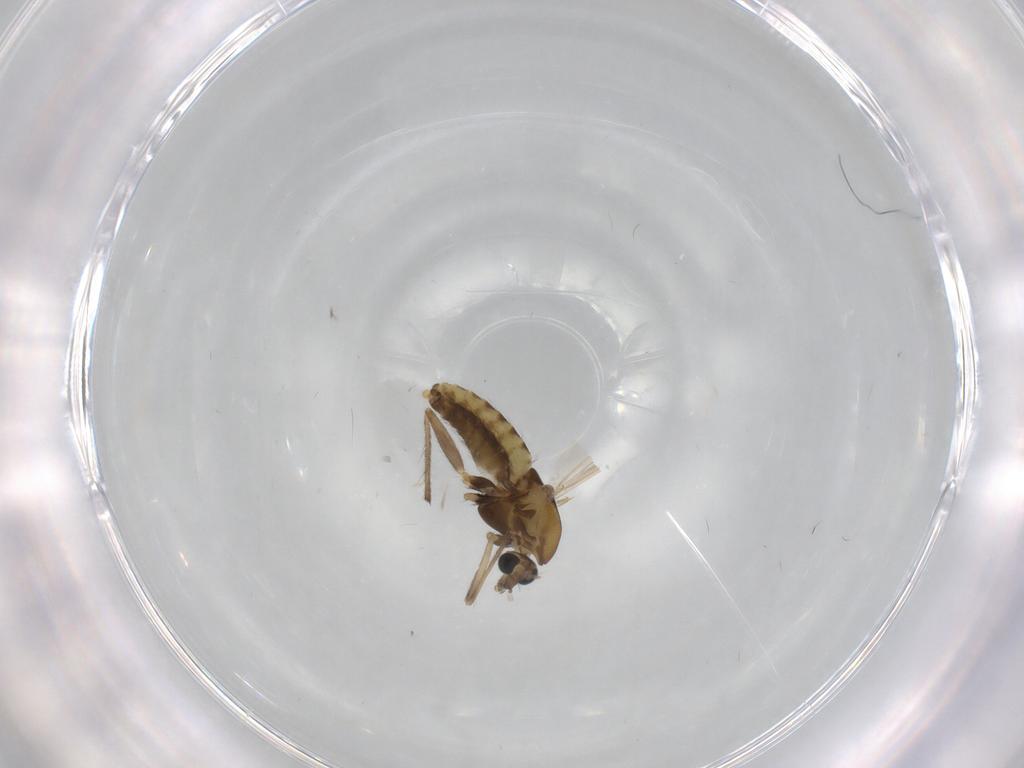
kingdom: Animalia
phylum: Arthropoda
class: Insecta
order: Diptera
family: Chironomidae
